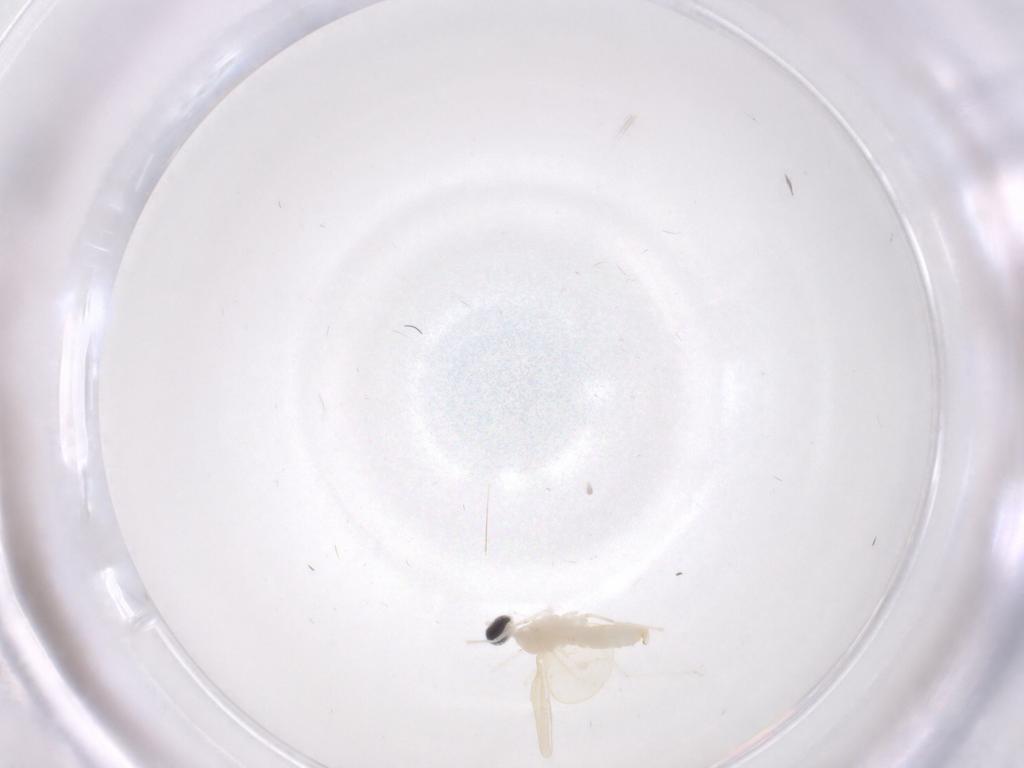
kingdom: Animalia
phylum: Arthropoda
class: Insecta
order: Diptera
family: Cecidomyiidae
